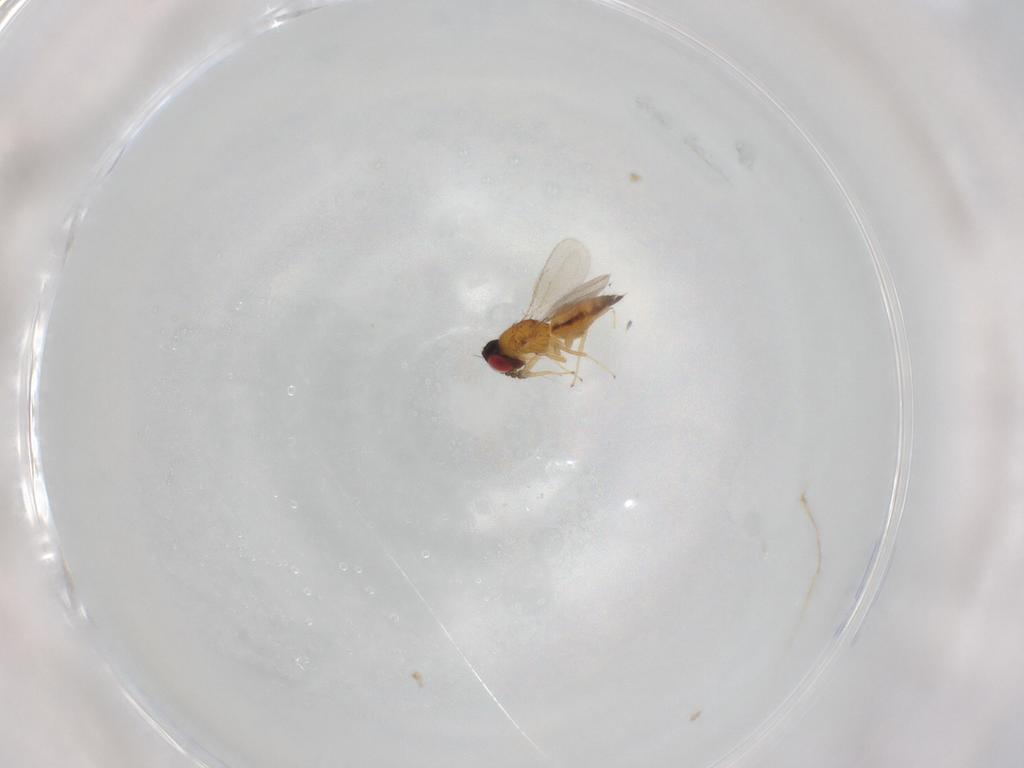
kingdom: Animalia
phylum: Arthropoda
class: Insecta
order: Hymenoptera
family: Eulophidae
